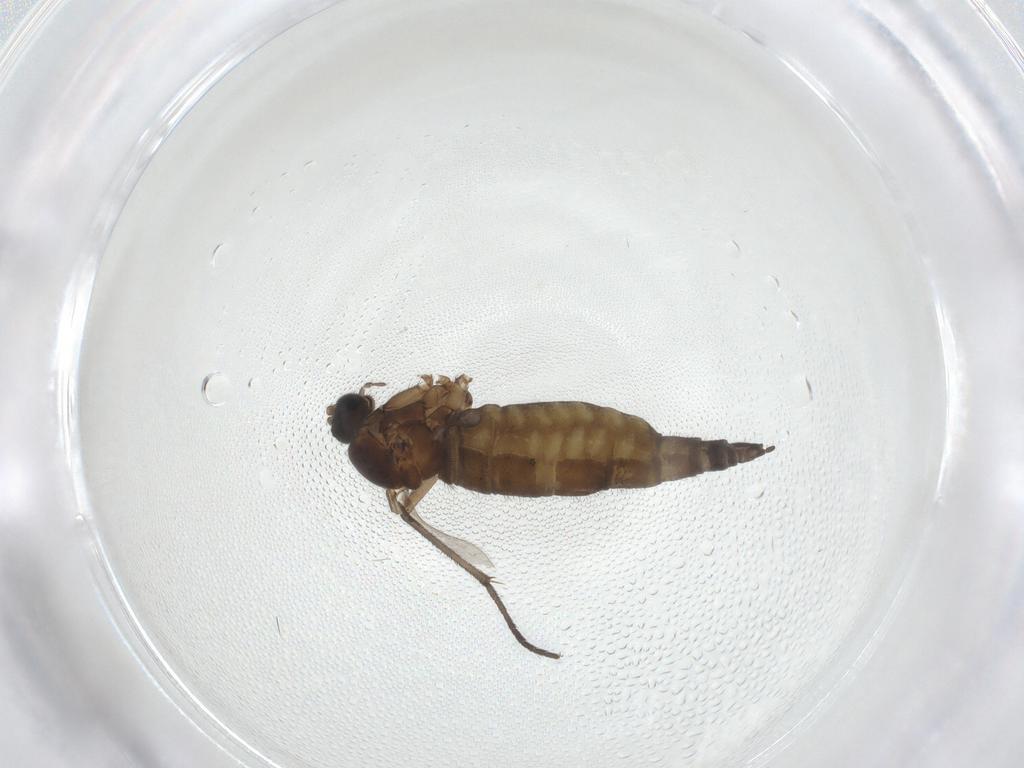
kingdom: Animalia
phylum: Arthropoda
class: Insecta
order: Diptera
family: Sciaridae
